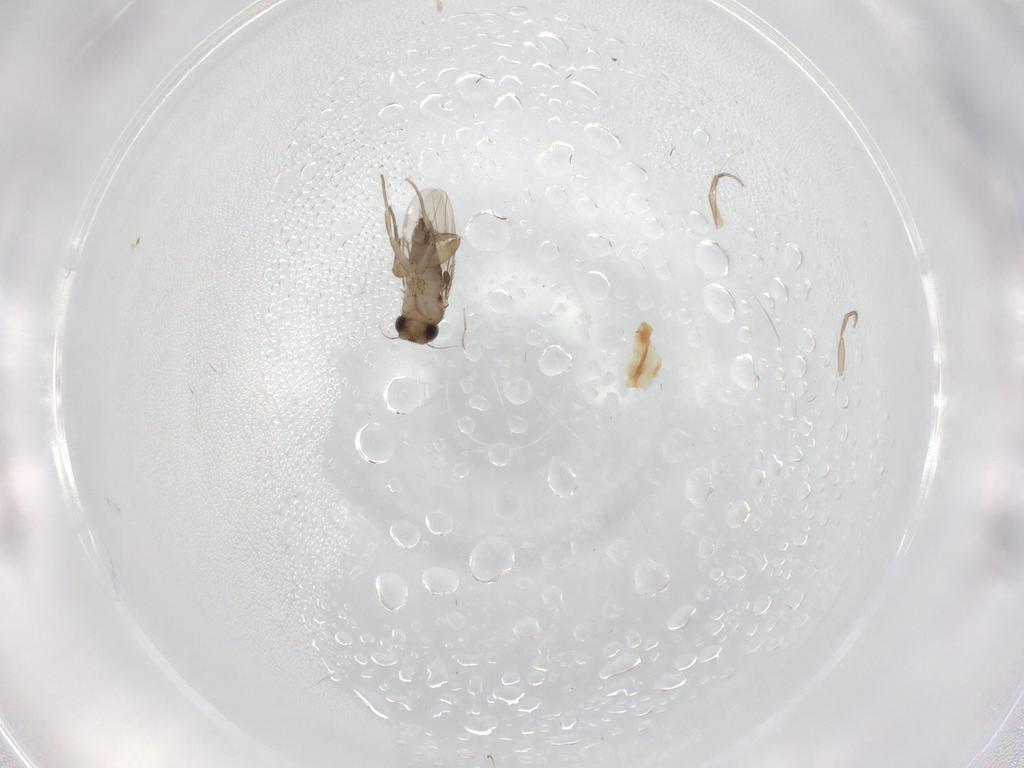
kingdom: Animalia
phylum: Arthropoda
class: Insecta
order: Diptera
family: Phoridae
